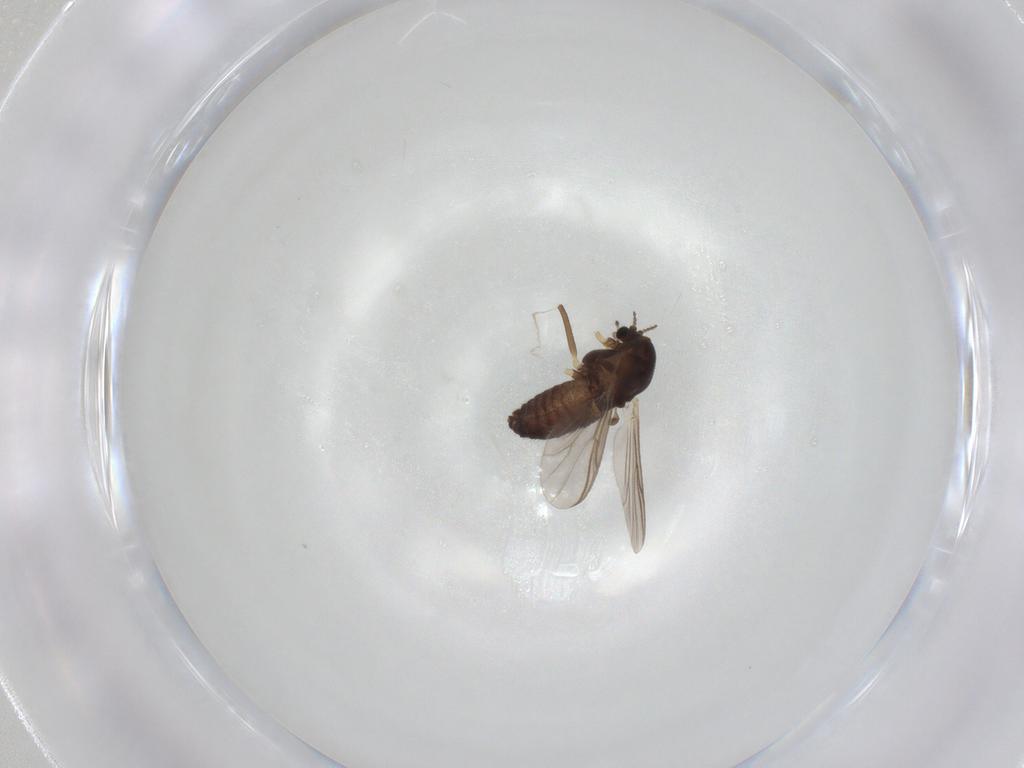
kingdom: Animalia
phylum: Arthropoda
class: Insecta
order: Diptera
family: Chironomidae
